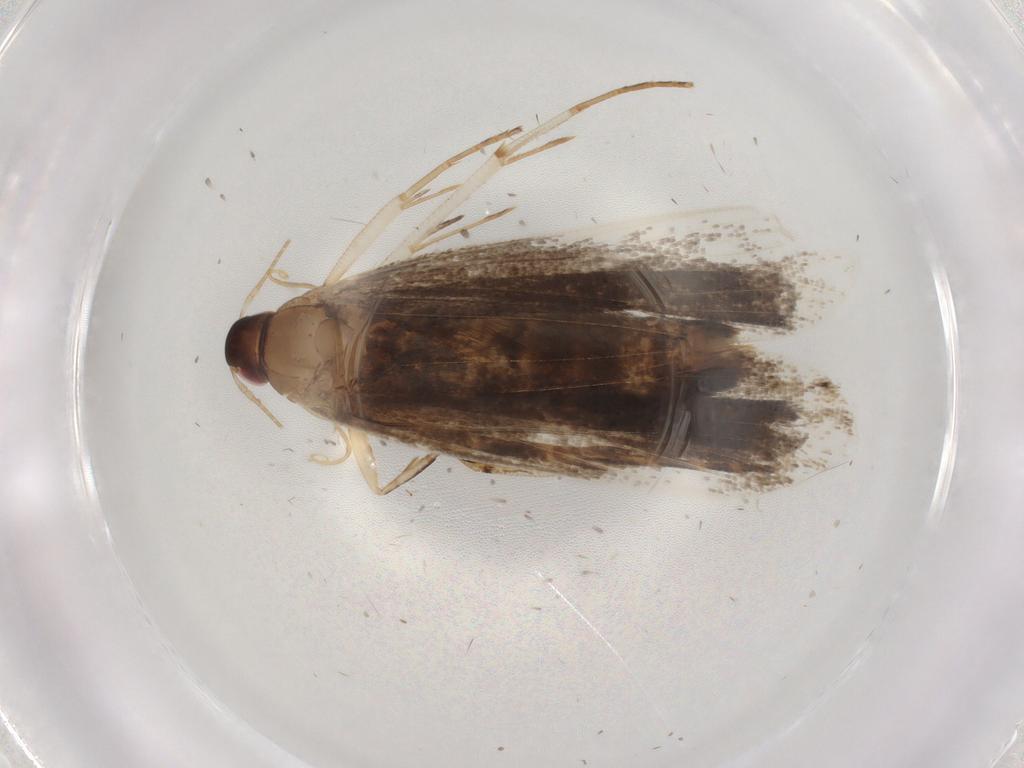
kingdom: Animalia
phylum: Arthropoda
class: Insecta
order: Lepidoptera
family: Gelechiidae
